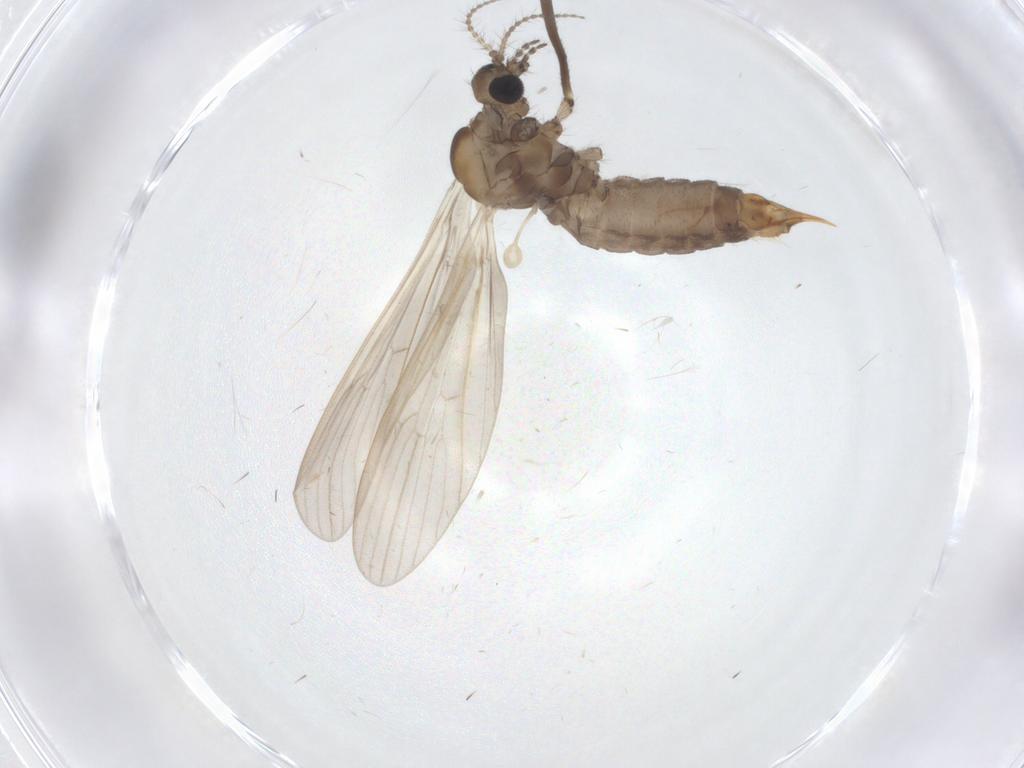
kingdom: Animalia
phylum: Arthropoda
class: Insecta
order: Diptera
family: Limoniidae
